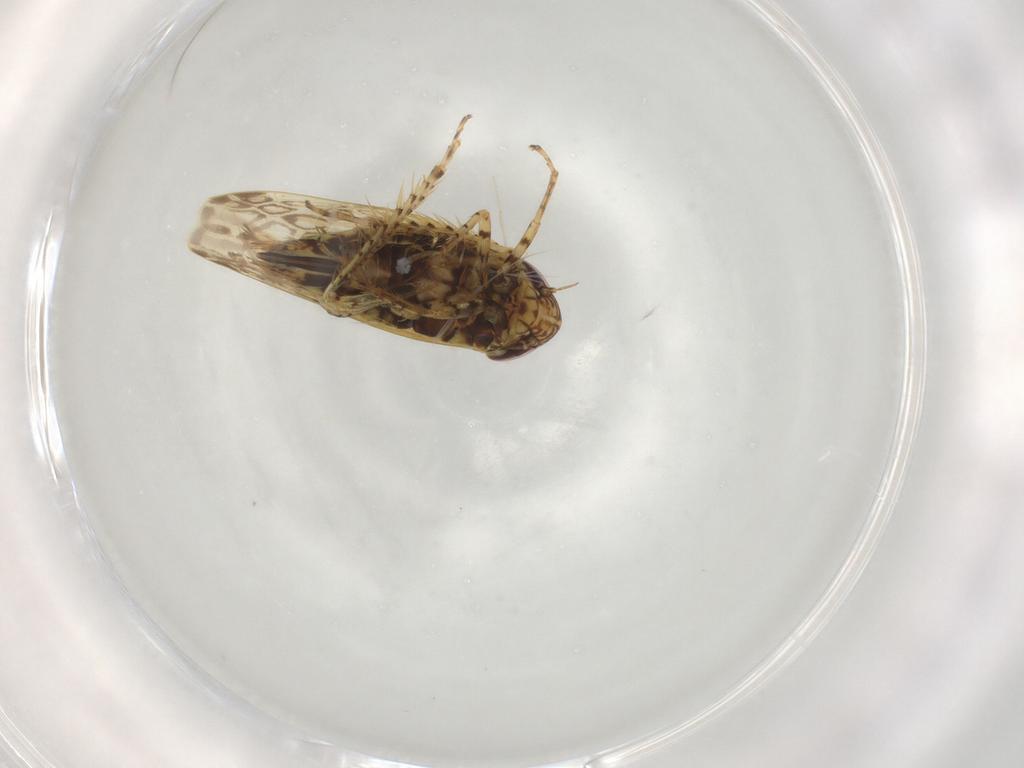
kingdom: Animalia
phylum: Arthropoda
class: Insecta
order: Hemiptera
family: Cicadellidae
